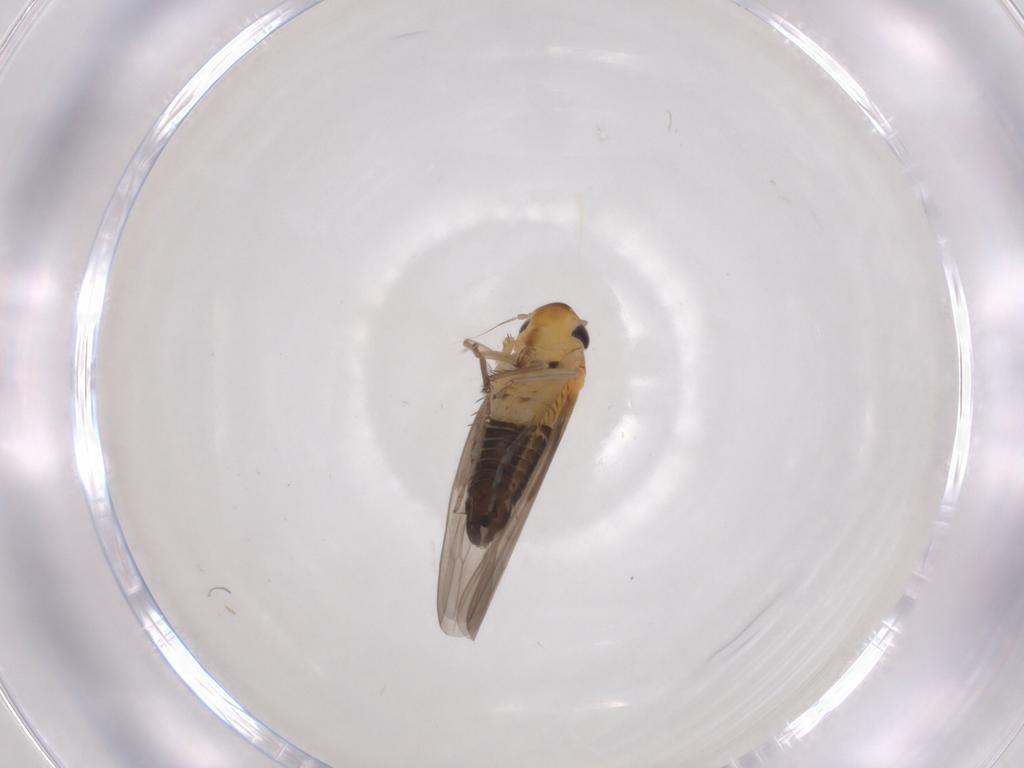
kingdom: Animalia
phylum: Arthropoda
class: Insecta
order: Hemiptera
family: Cicadellidae
